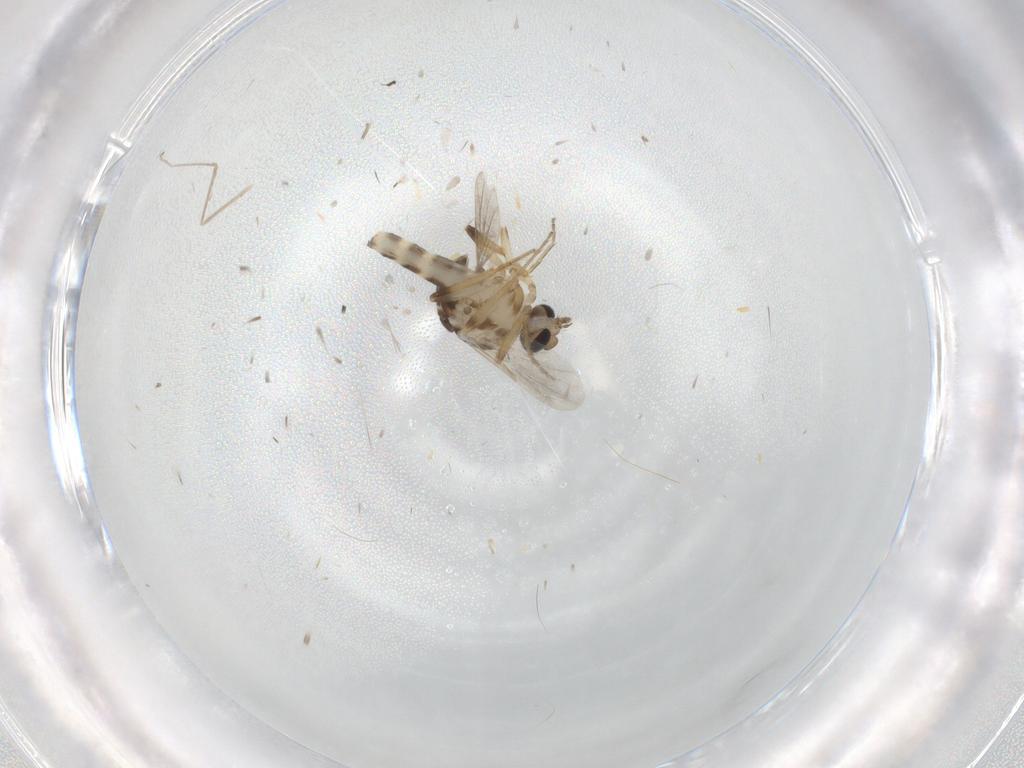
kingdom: Animalia
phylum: Arthropoda
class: Insecta
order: Diptera
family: Ceratopogonidae
